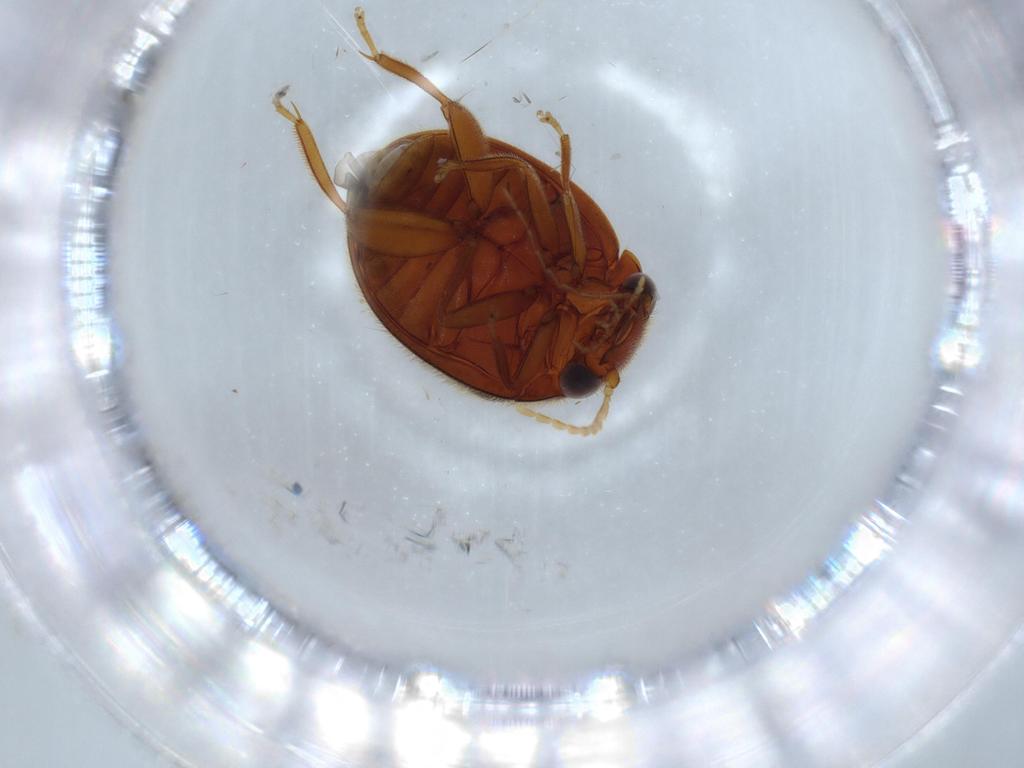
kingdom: Animalia
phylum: Arthropoda
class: Insecta
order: Coleoptera
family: Scirtidae
